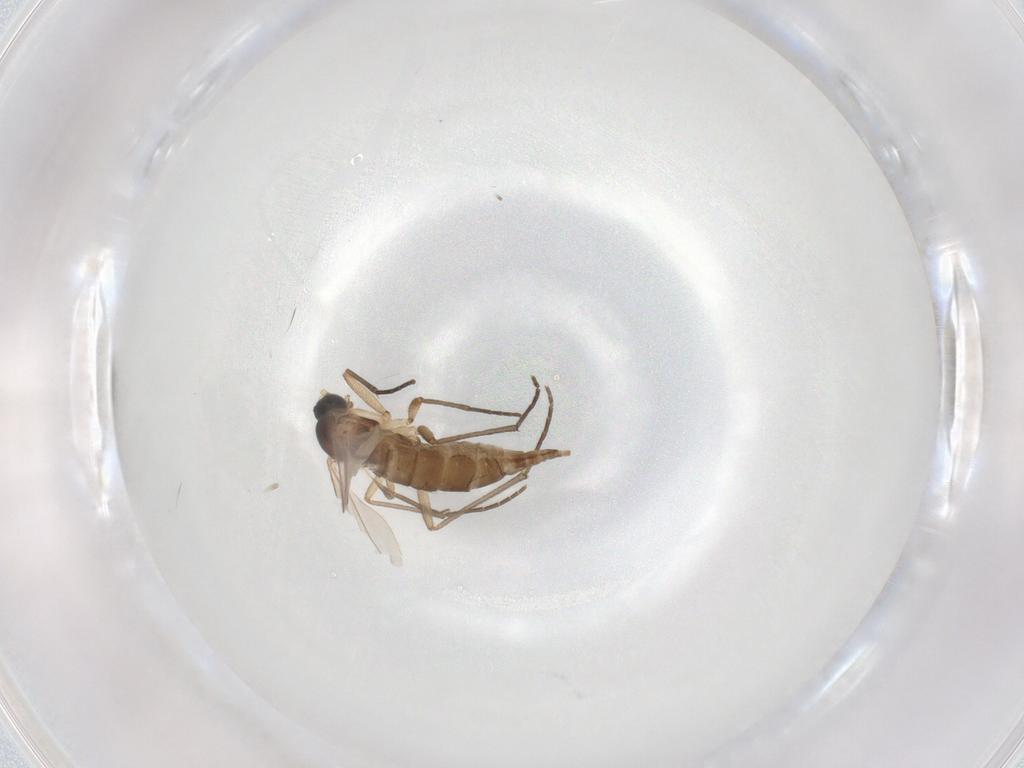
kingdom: Animalia
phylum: Arthropoda
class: Insecta
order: Diptera
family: Sciaridae
